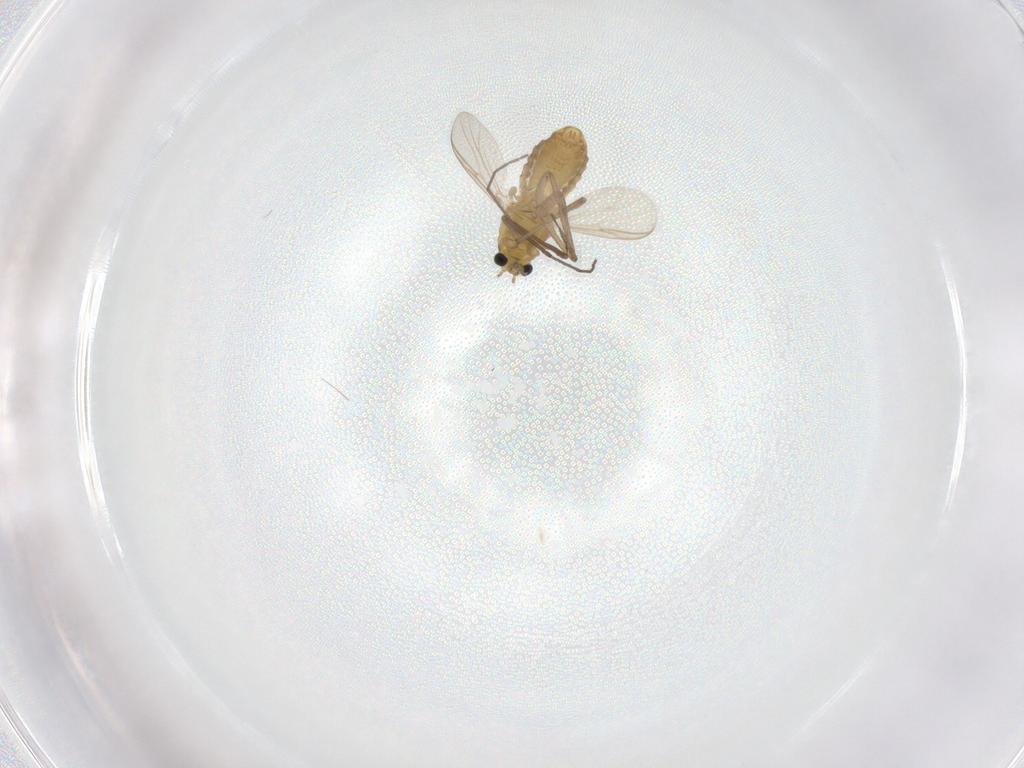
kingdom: Animalia
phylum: Arthropoda
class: Insecta
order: Diptera
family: Chironomidae
